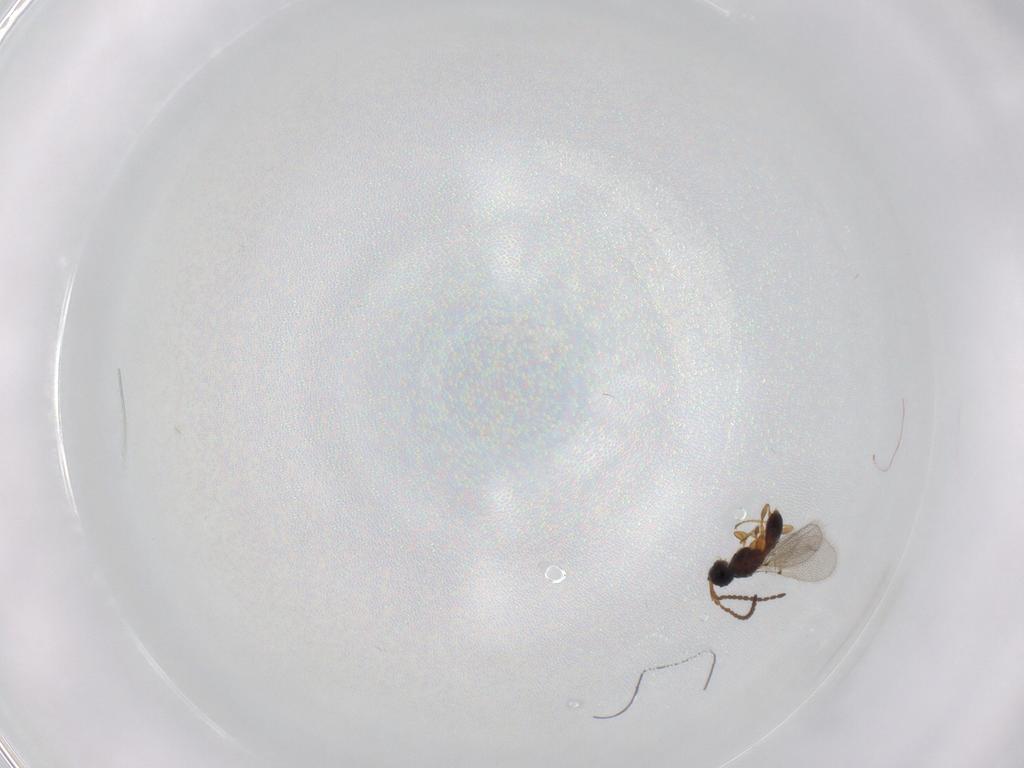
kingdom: Animalia
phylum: Arthropoda
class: Insecta
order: Hymenoptera
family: Diapriidae
